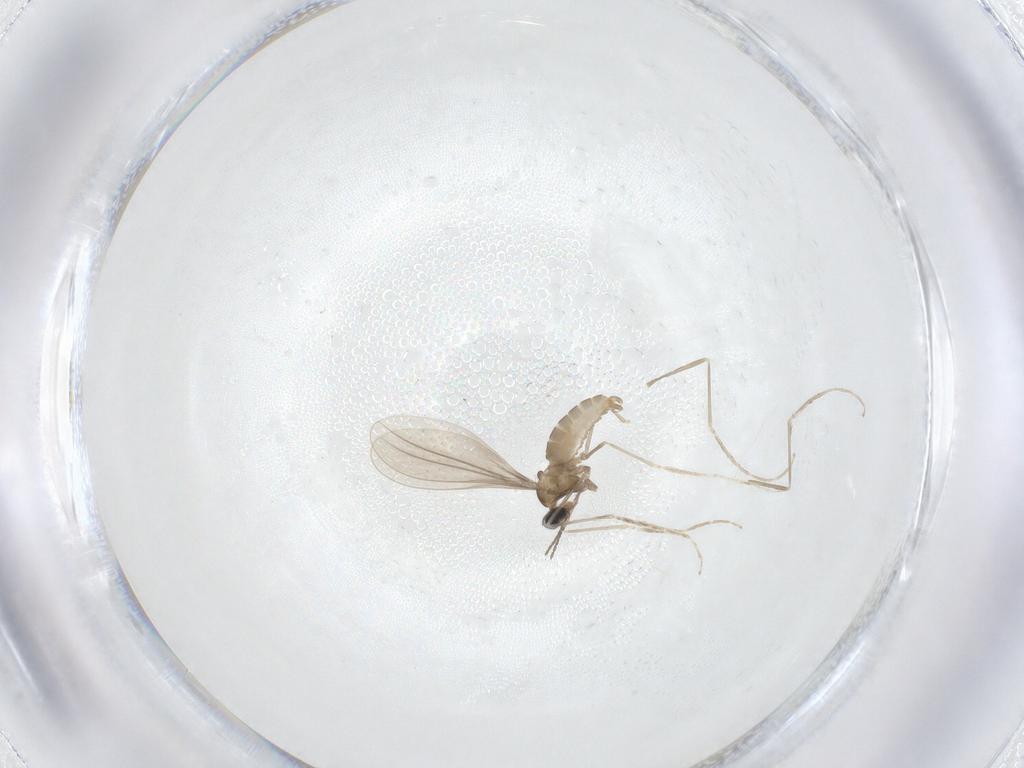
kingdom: Animalia
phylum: Arthropoda
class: Insecta
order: Diptera
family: Cecidomyiidae
